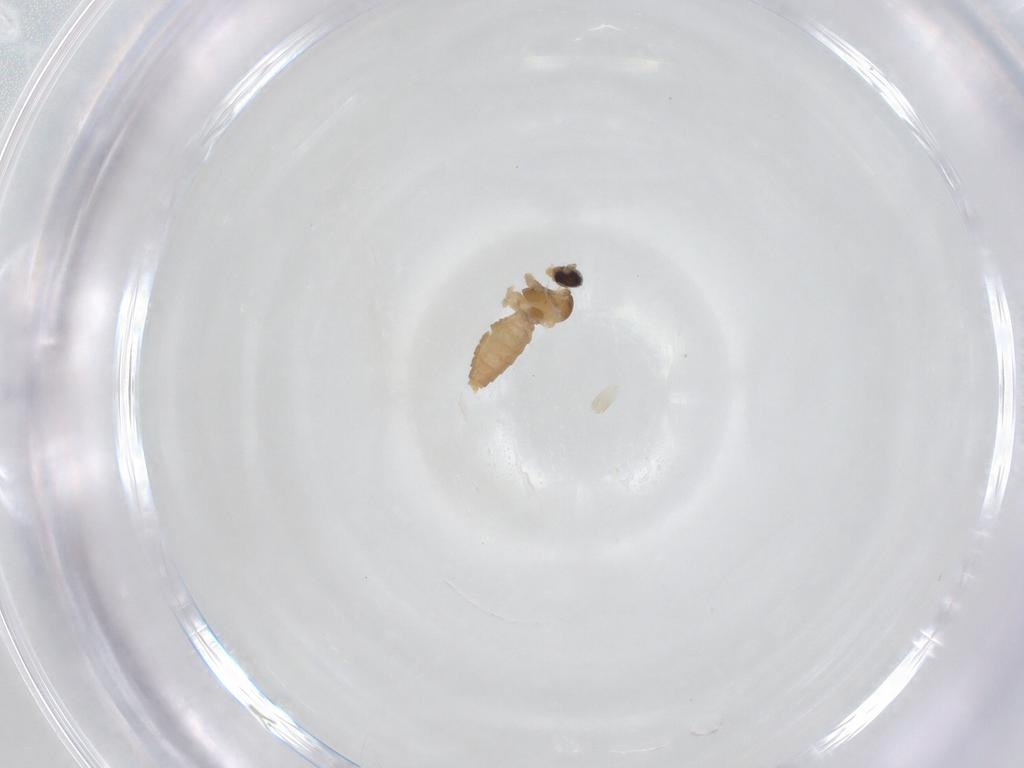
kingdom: Animalia
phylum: Arthropoda
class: Insecta
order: Diptera
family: Cecidomyiidae
